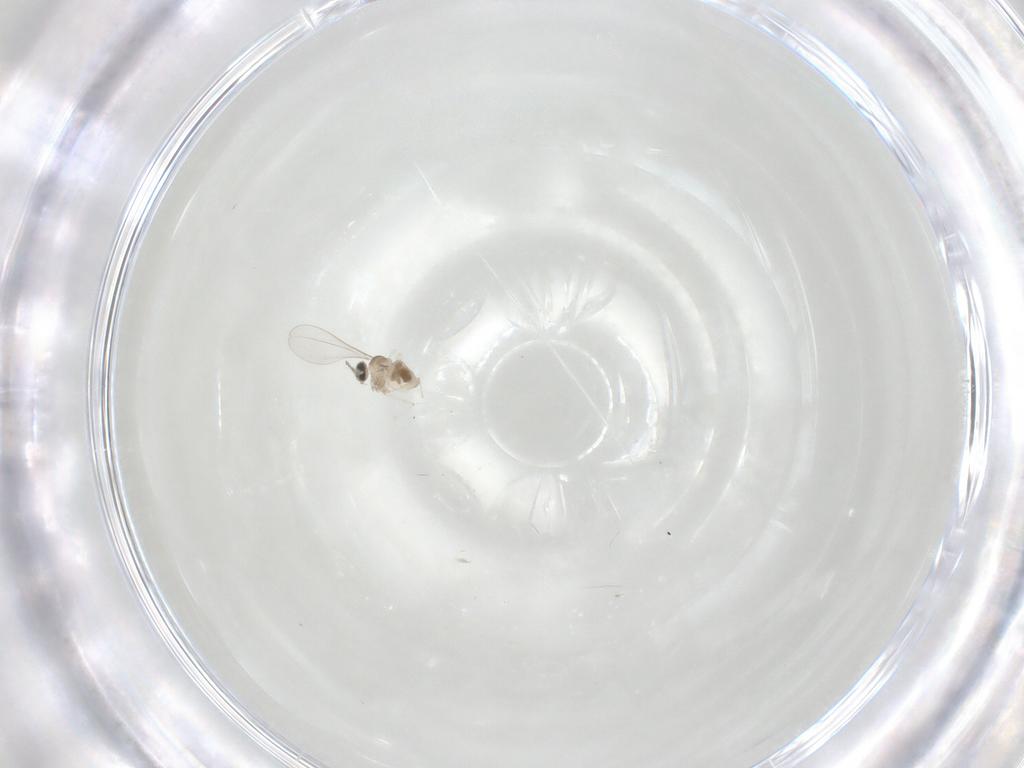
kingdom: Animalia
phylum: Arthropoda
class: Insecta
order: Diptera
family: Cecidomyiidae
